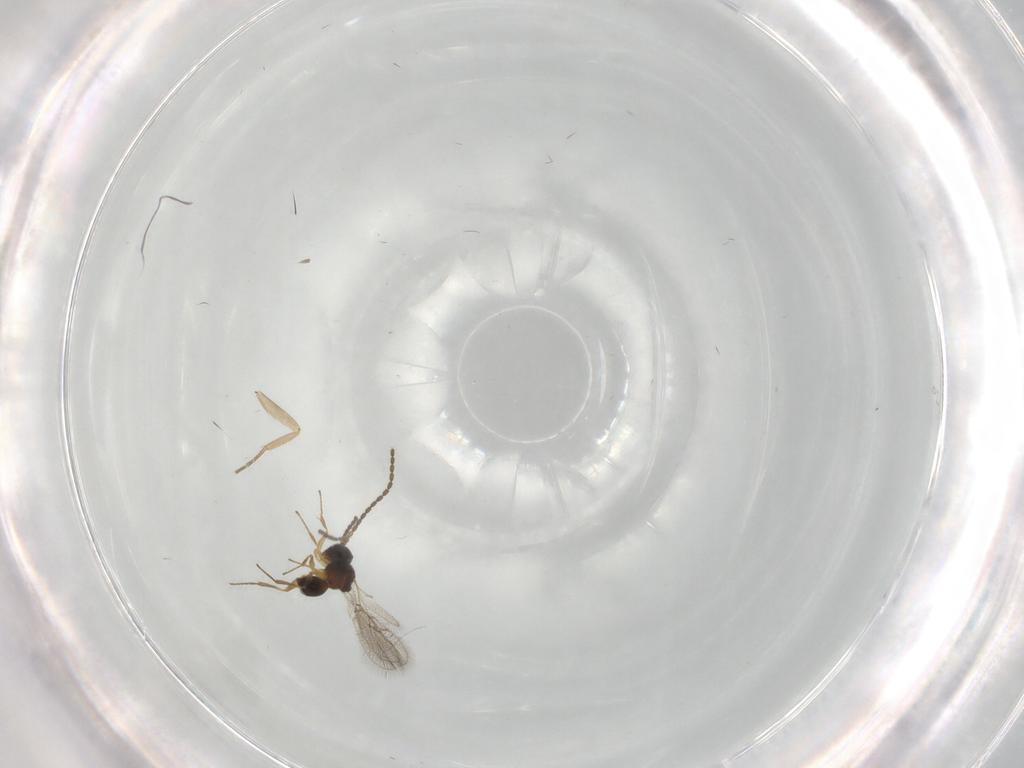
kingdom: Animalia
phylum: Arthropoda
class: Insecta
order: Hymenoptera
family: Figitidae
